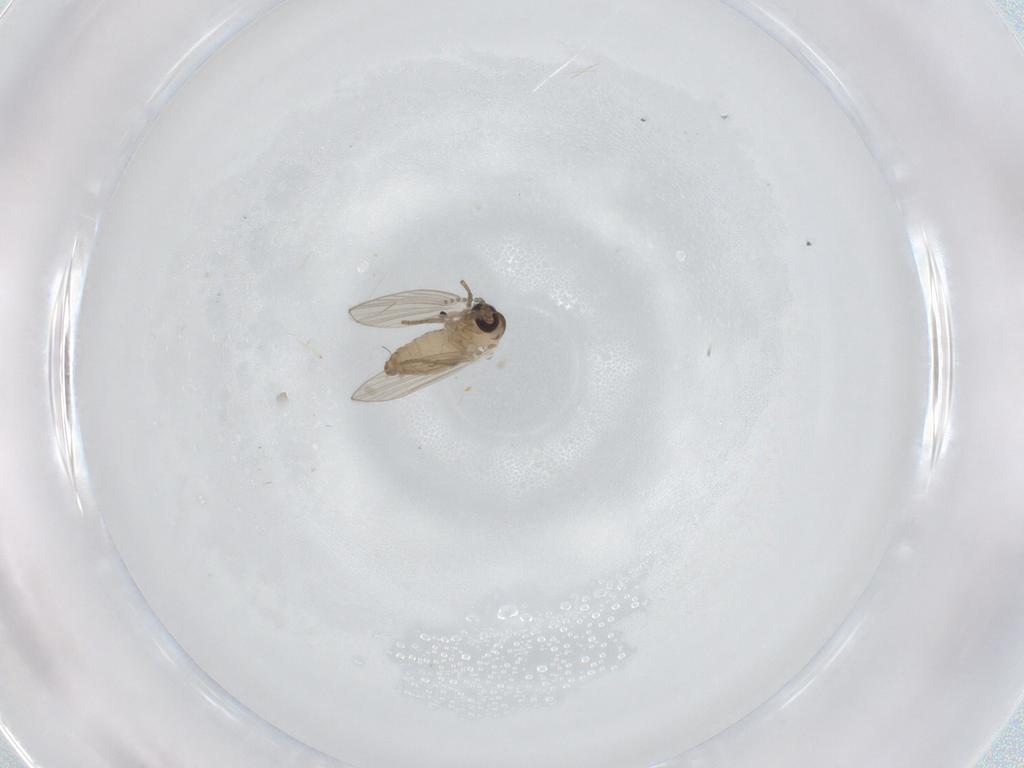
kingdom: Animalia
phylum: Arthropoda
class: Insecta
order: Diptera
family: Psychodidae
